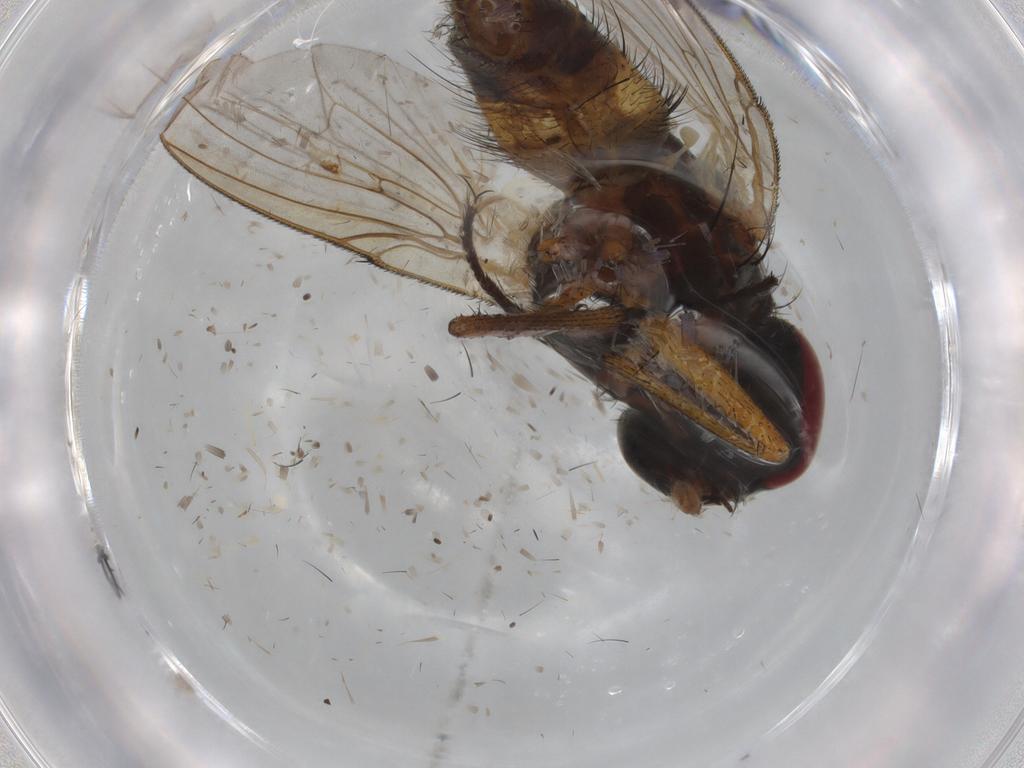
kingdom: Animalia
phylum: Arthropoda
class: Insecta
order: Diptera
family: Muscidae
